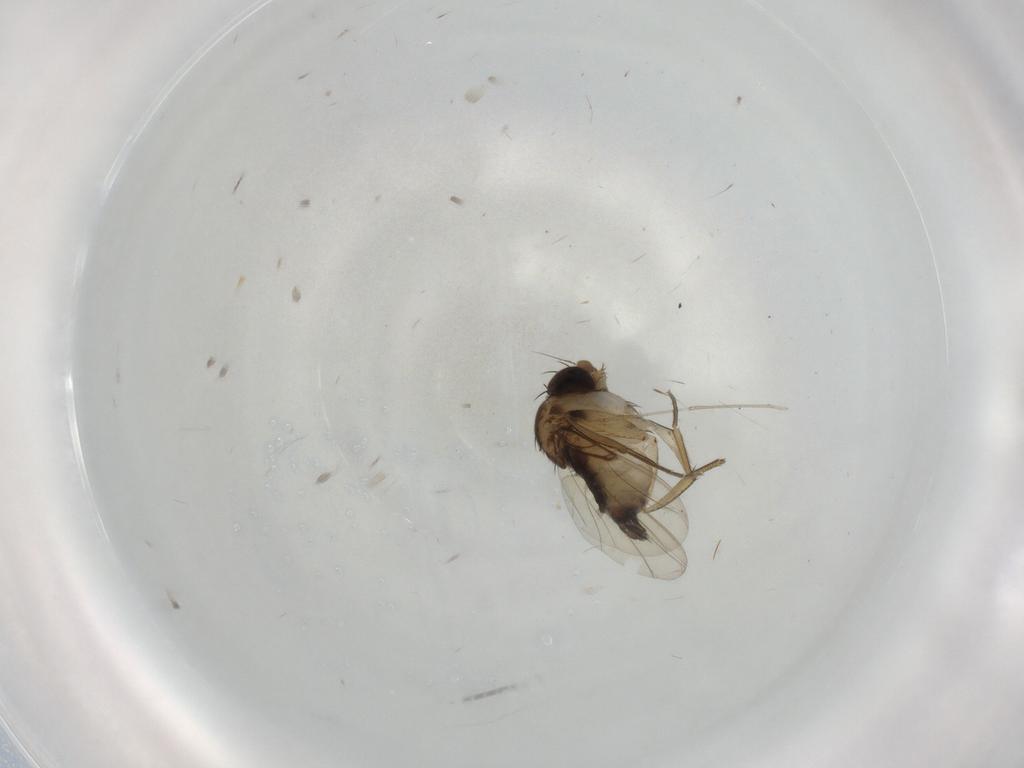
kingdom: Animalia
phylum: Arthropoda
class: Insecta
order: Diptera
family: Phoridae
